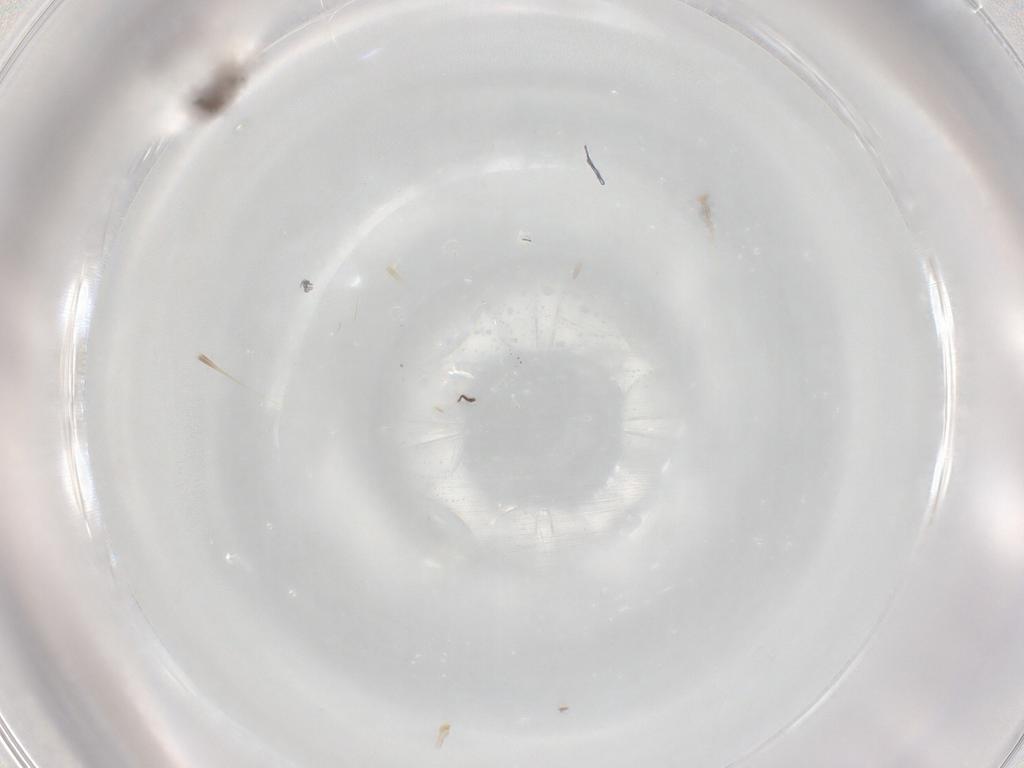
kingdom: Animalia
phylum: Arthropoda
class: Insecta
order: Diptera
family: Ceratopogonidae
